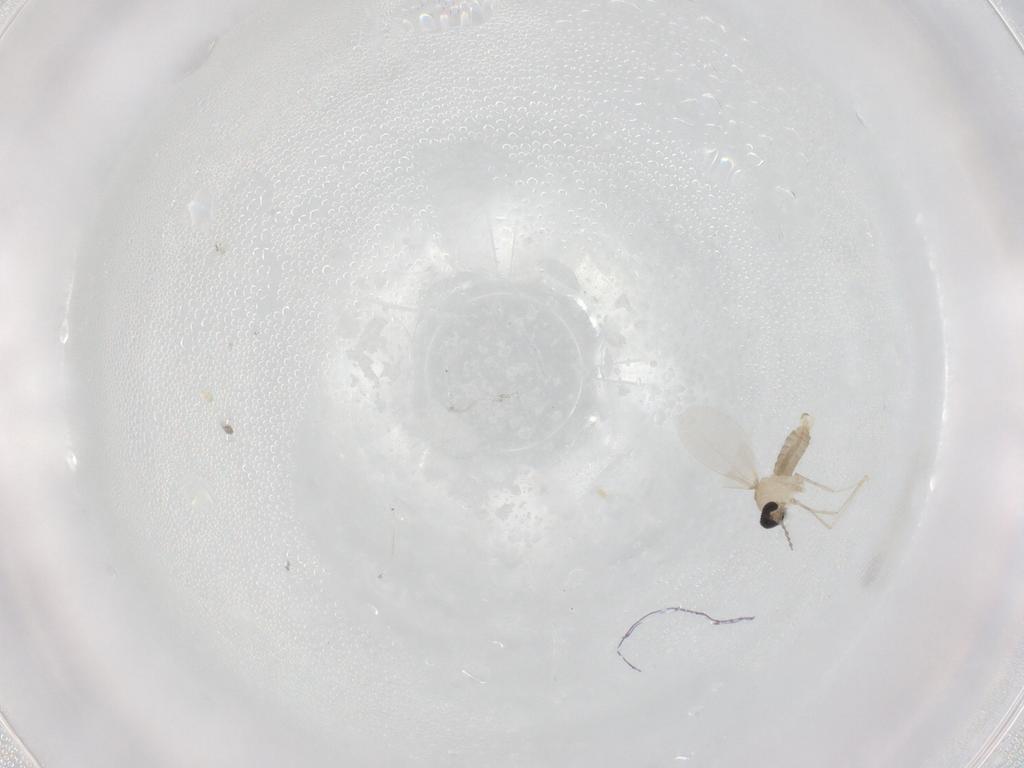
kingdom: Animalia
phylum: Arthropoda
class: Insecta
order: Diptera
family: Cecidomyiidae
